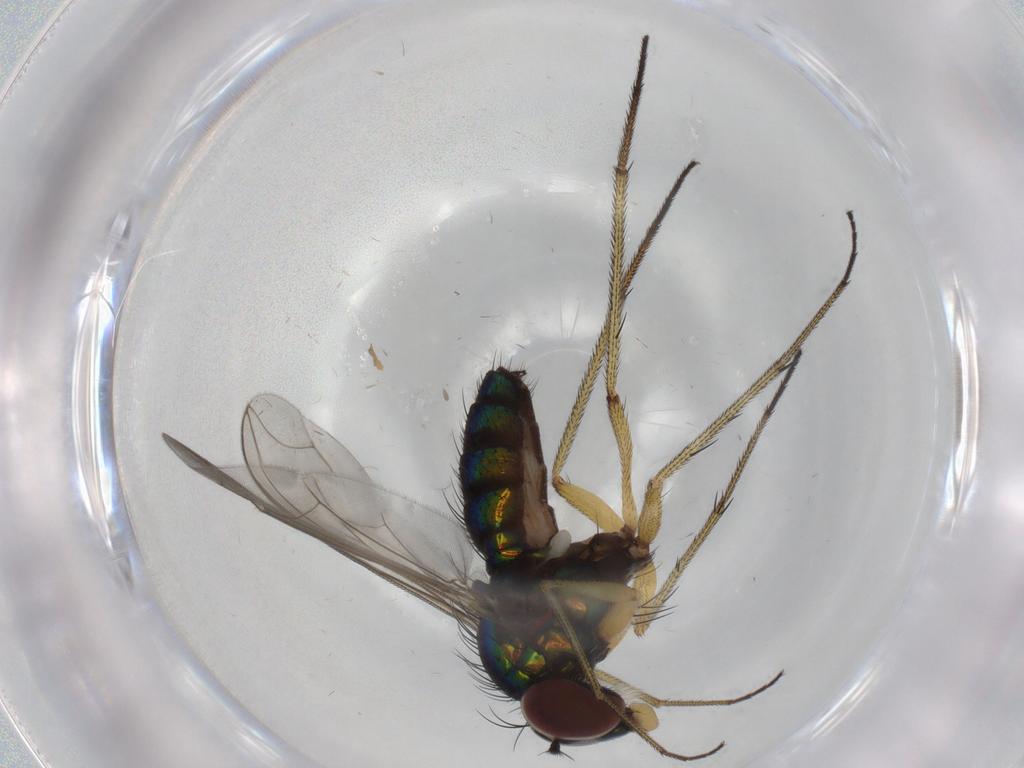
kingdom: Animalia
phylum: Arthropoda
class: Insecta
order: Diptera
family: Dolichopodidae
